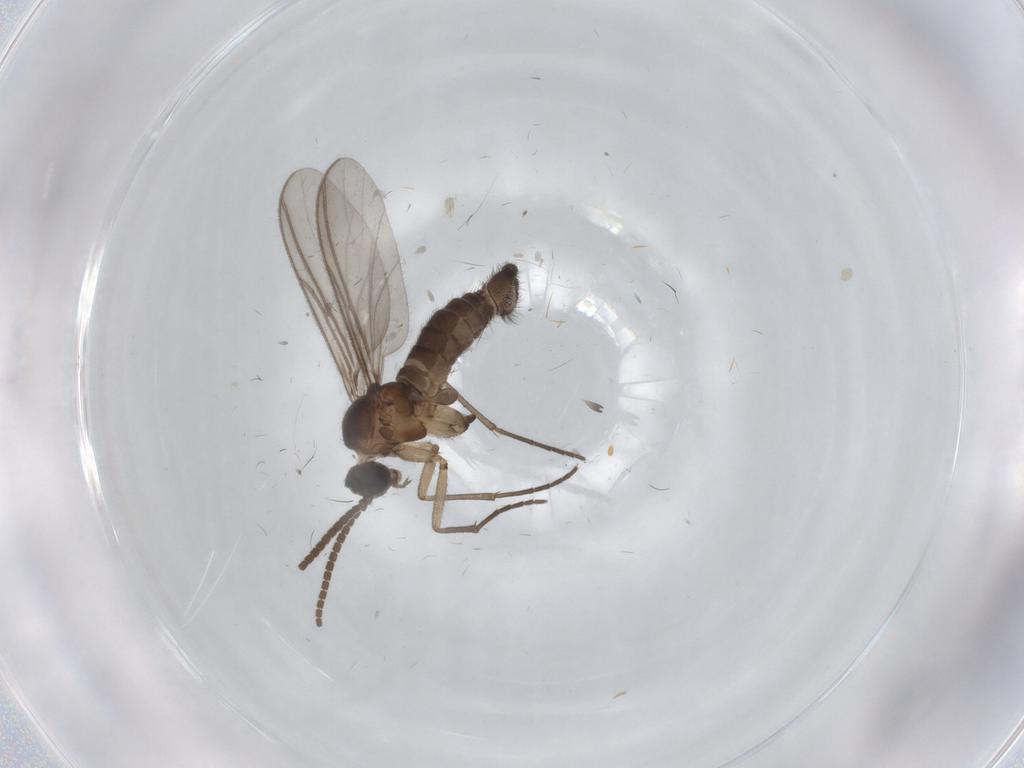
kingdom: Animalia
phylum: Arthropoda
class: Insecta
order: Diptera
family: Sciaridae
